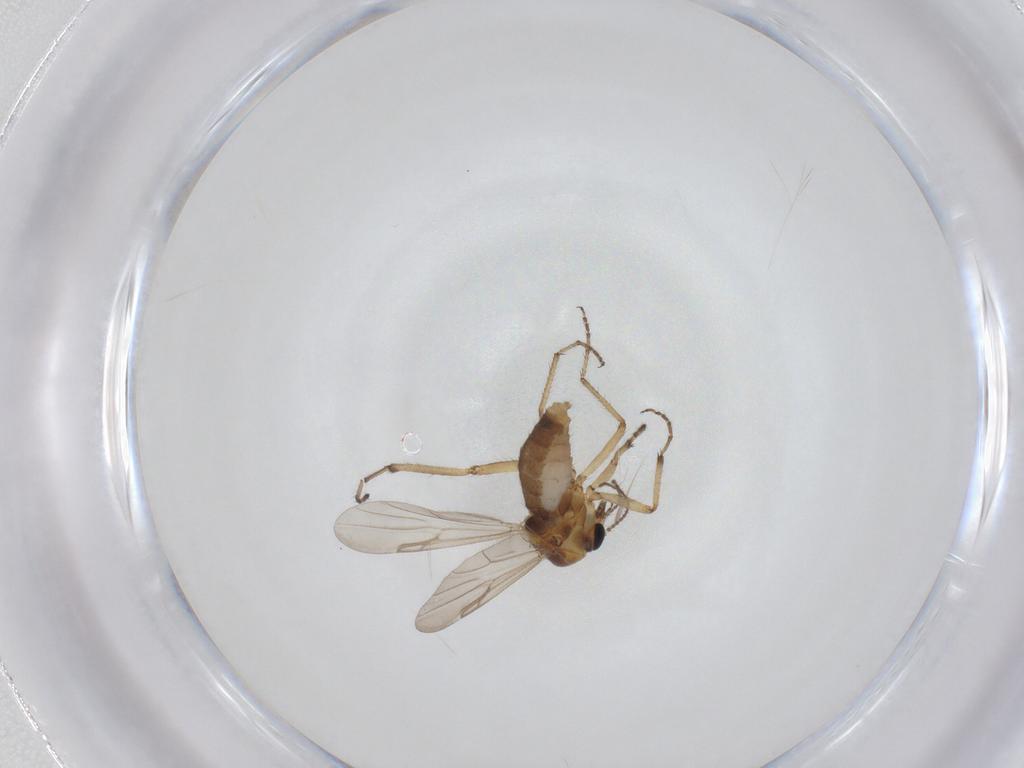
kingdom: Animalia
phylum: Arthropoda
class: Insecta
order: Diptera
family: Ceratopogonidae
